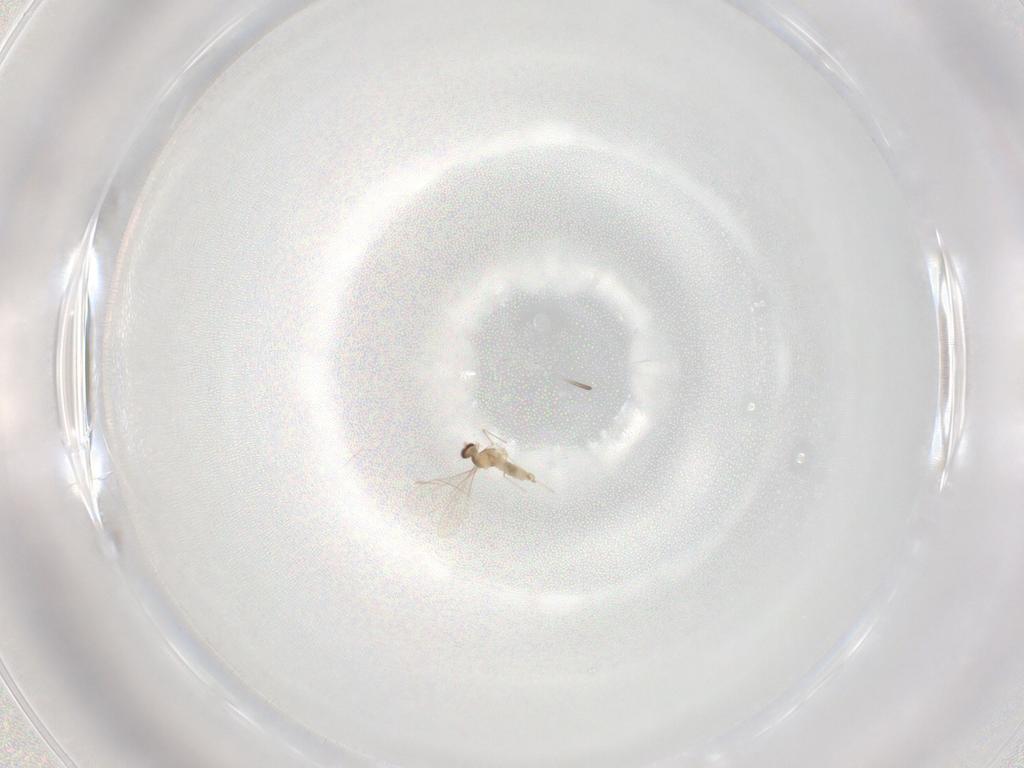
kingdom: Animalia
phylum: Arthropoda
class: Insecta
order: Diptera
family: Cecidomyiidae
